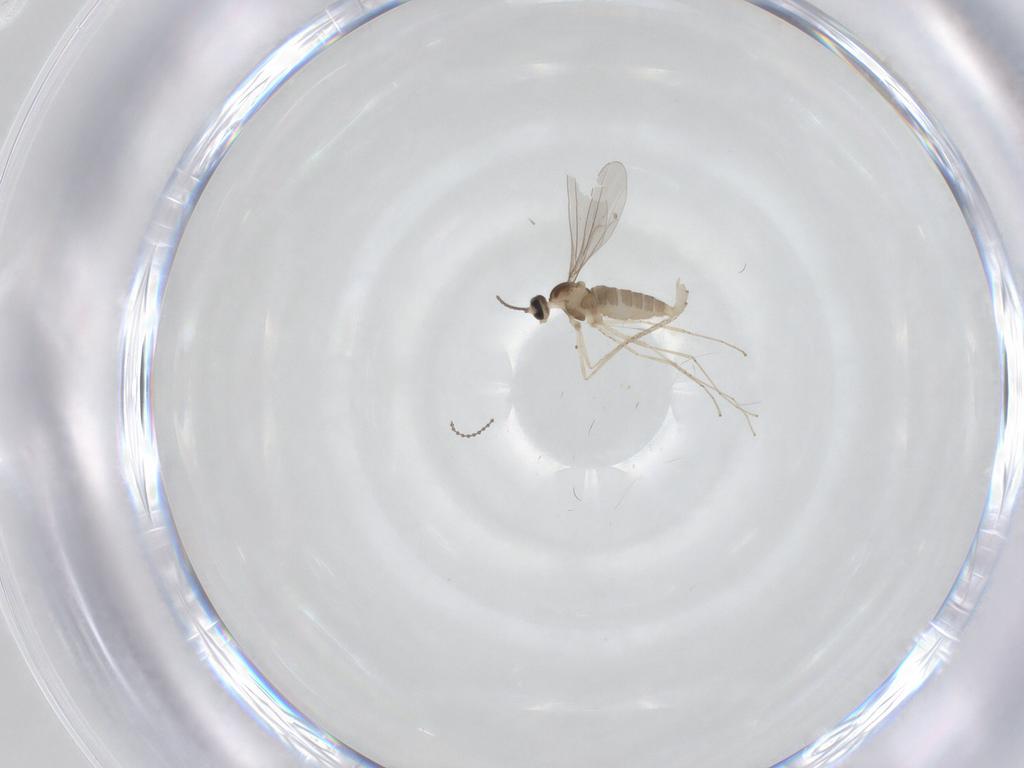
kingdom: Animalia
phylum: Arthropoda
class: Insecta
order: Diptera
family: Cecidomyiidae
